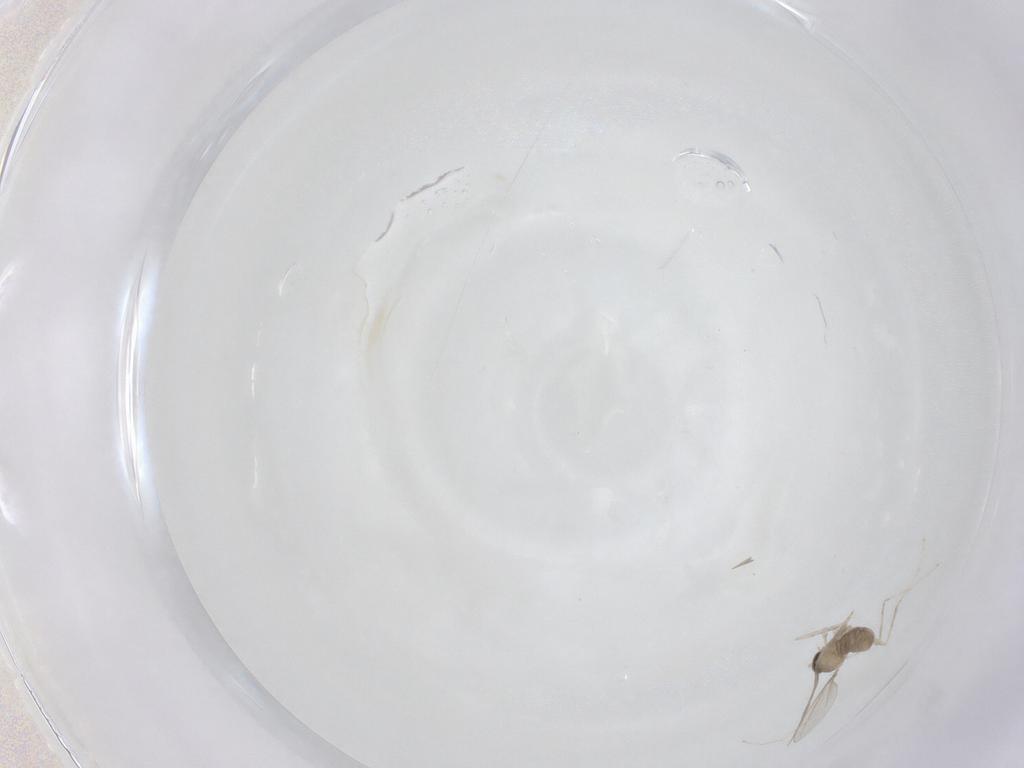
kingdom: Animalia
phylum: Arthropoda
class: Insecta
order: Diptera
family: Cecidomyiidae
